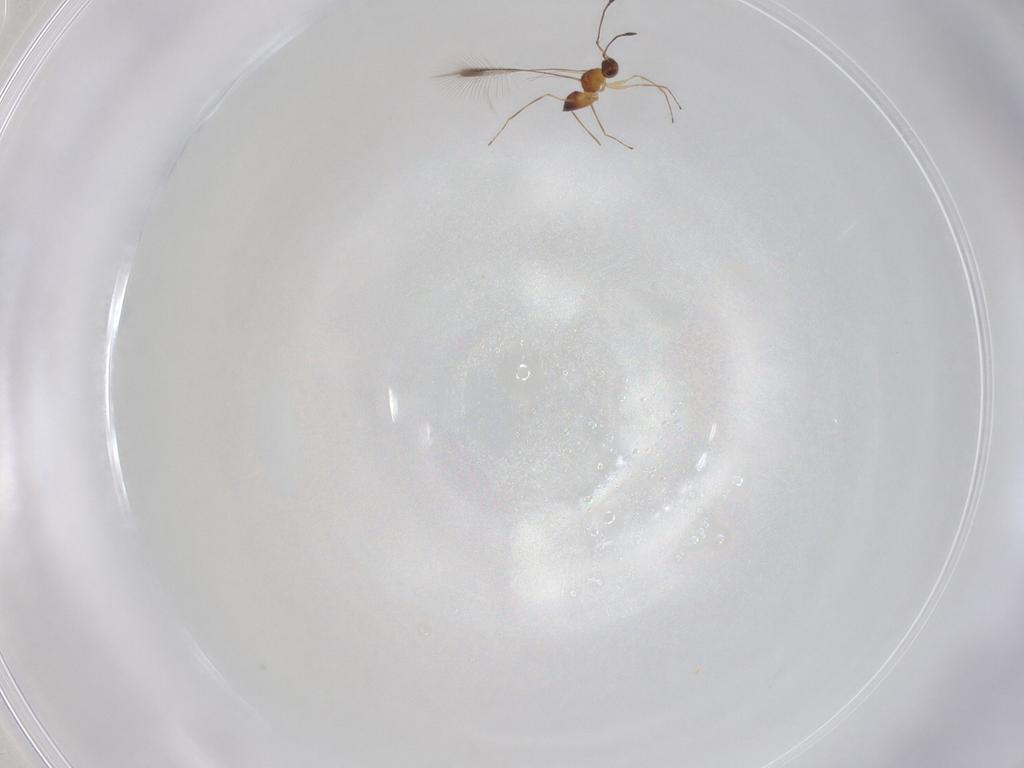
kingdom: Animalia
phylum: Arthropoda
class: Insecta
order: Hymenoptera
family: Mymaridae
